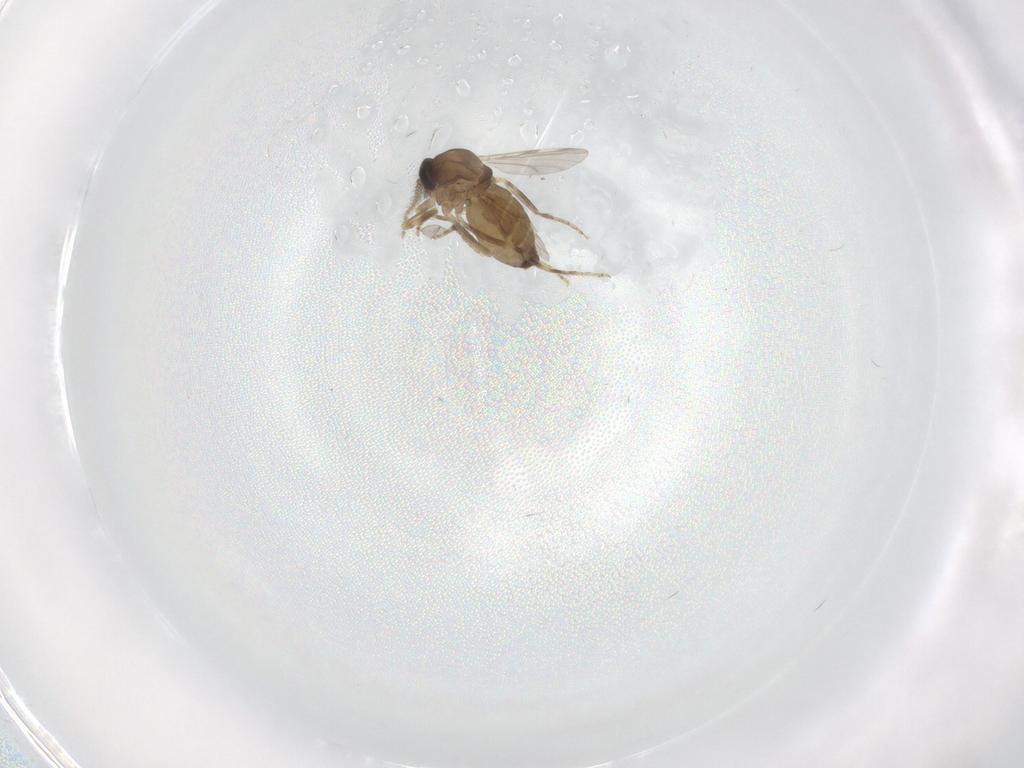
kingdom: Animalia
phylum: Arthropoda
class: Insecta
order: Diptera
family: Ceratopogonidae
